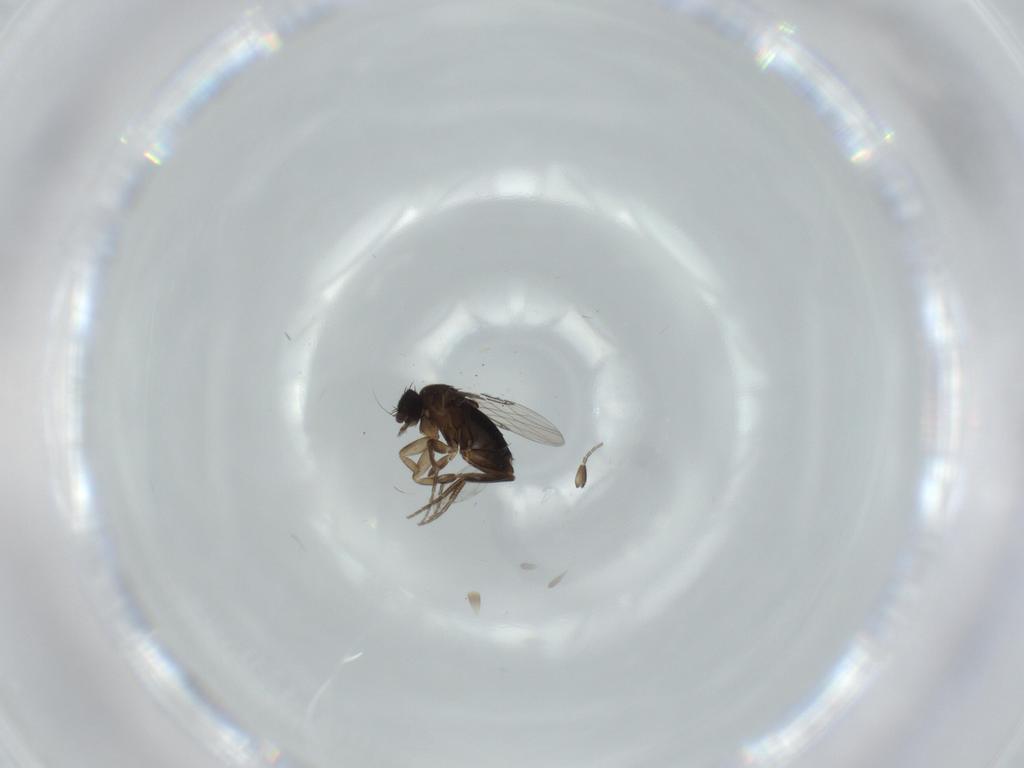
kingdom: Animalia
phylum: Arthropoda
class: Insecta
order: Diptera
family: Phoridae
